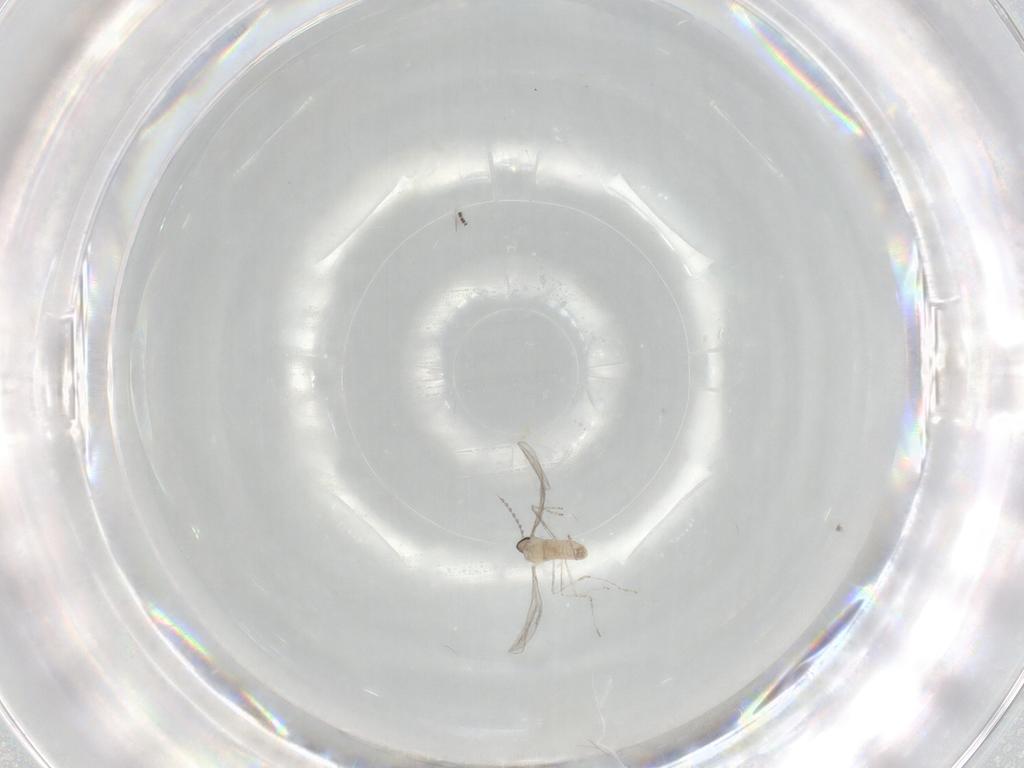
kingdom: Animalia
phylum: Arthropoda
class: Insecta
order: Diptera
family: Cecidomyiidae
